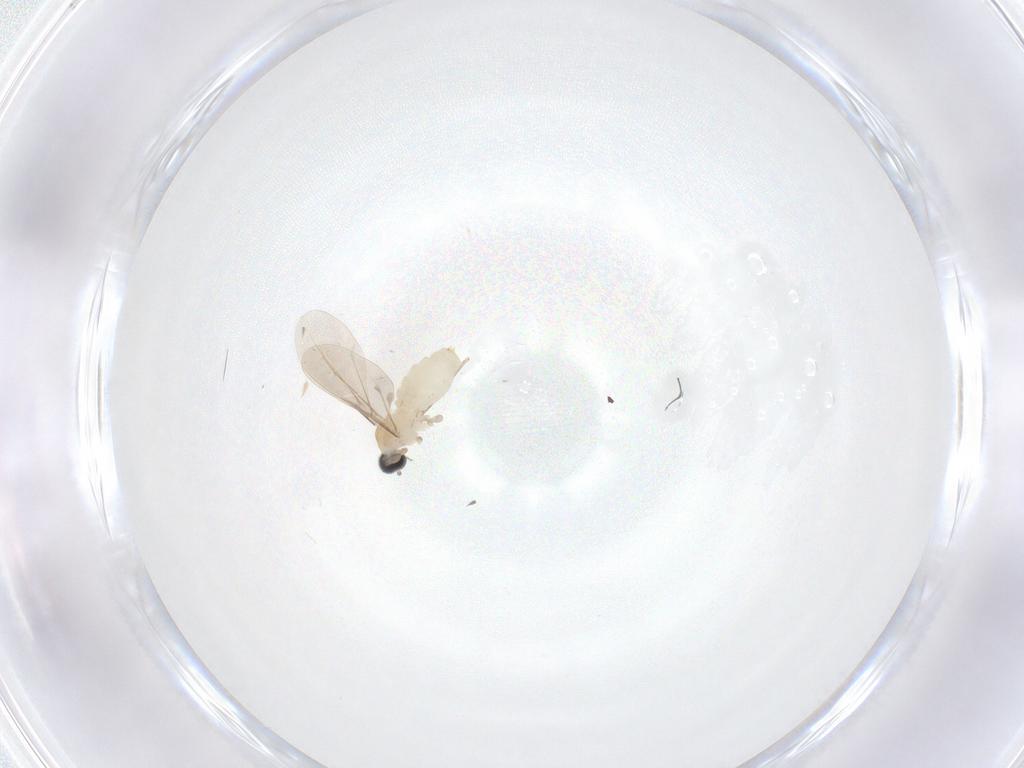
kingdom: Animalia
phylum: Arthropoda
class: Insecta
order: Diptera
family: Cecidomyiidae
